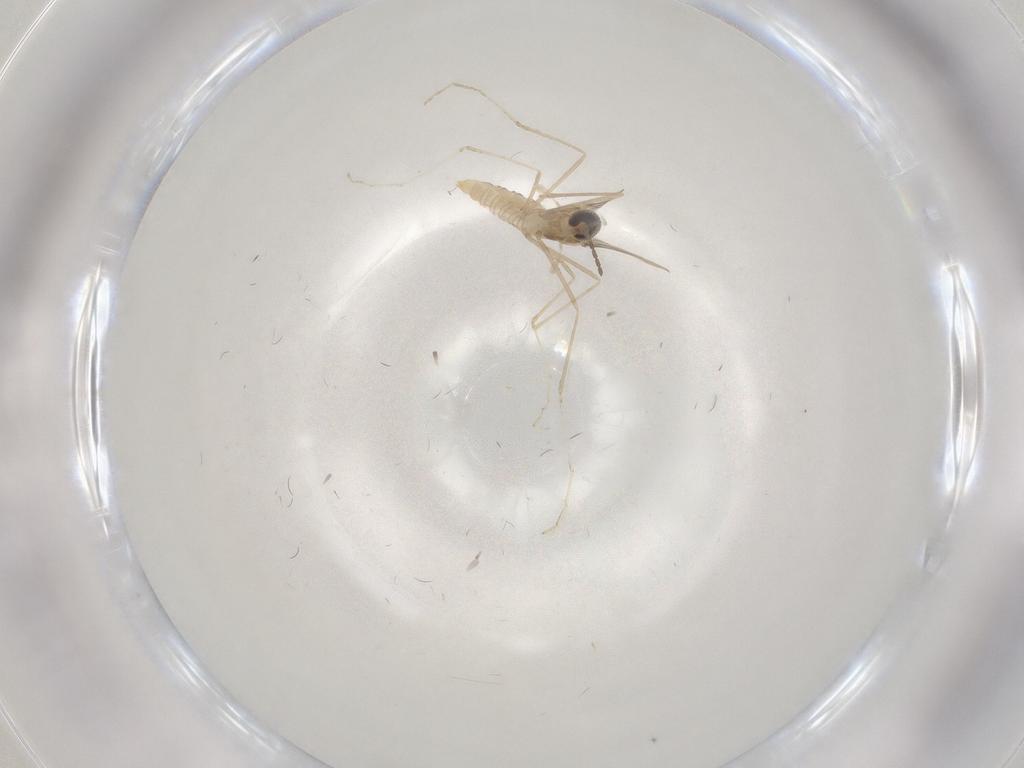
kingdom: Animalia
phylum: Arthropoda
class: Insecta
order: Diptera
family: Cecidomyiidae
